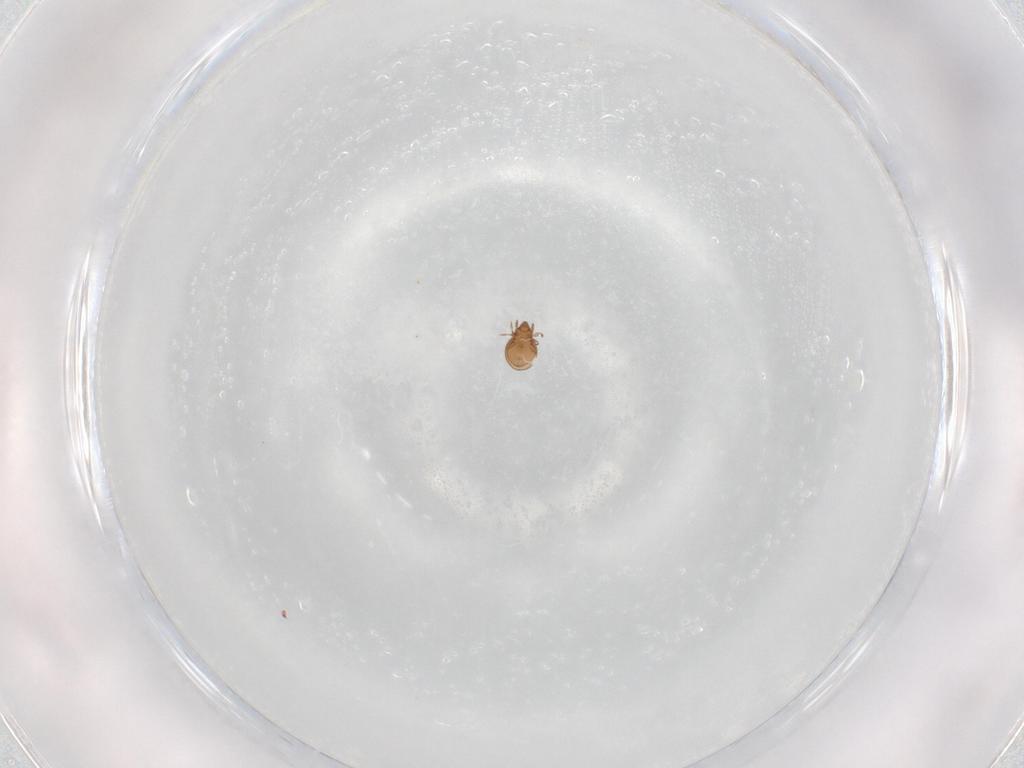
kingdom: Animalia
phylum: Arthropoda
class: Arachnida
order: Trombidiformes
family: Eupodidae
